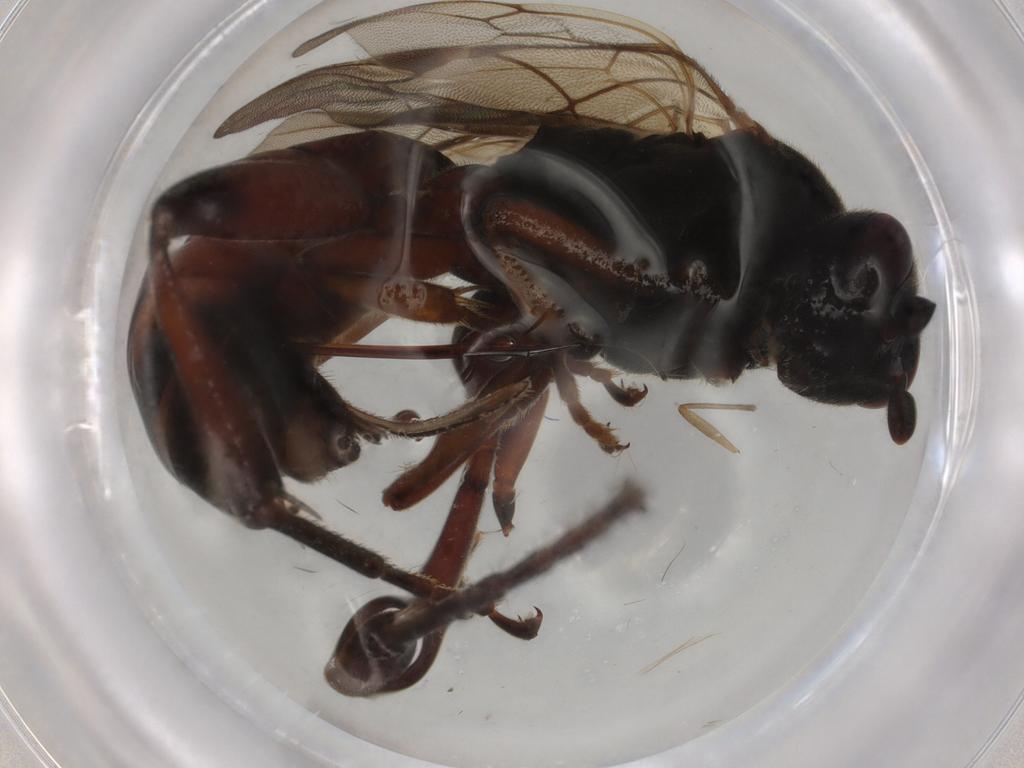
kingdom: Animalia
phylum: Arthropoda
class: Insecta
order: Hymenoptera
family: Ichneumonidae
